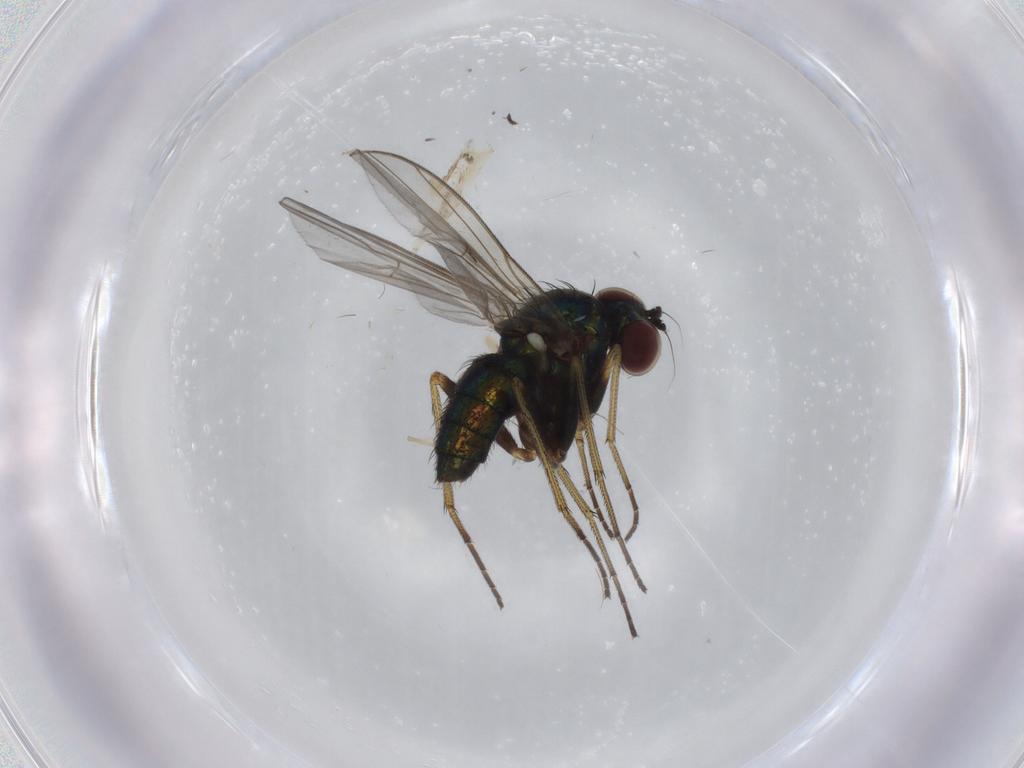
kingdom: Animalia
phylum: Arthropoda
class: Insecta
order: Diptera
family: Dolichopodidae
